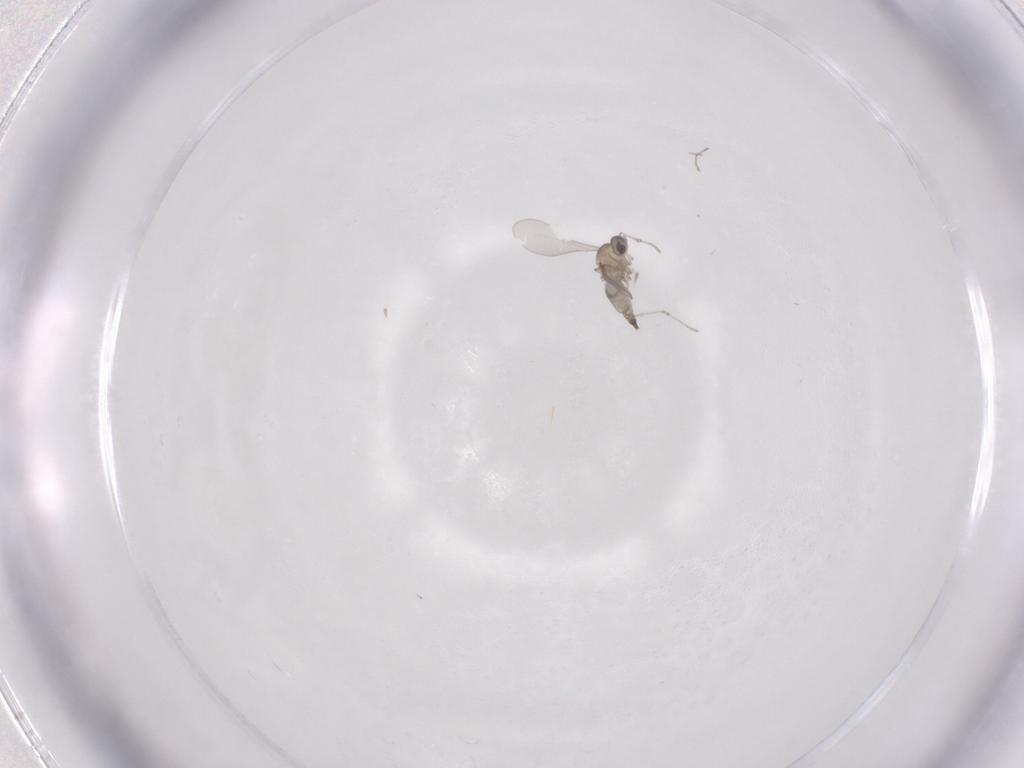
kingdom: Animalia
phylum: Arthropoda
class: Insecta
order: Diptera
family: Cecidomyiidae
